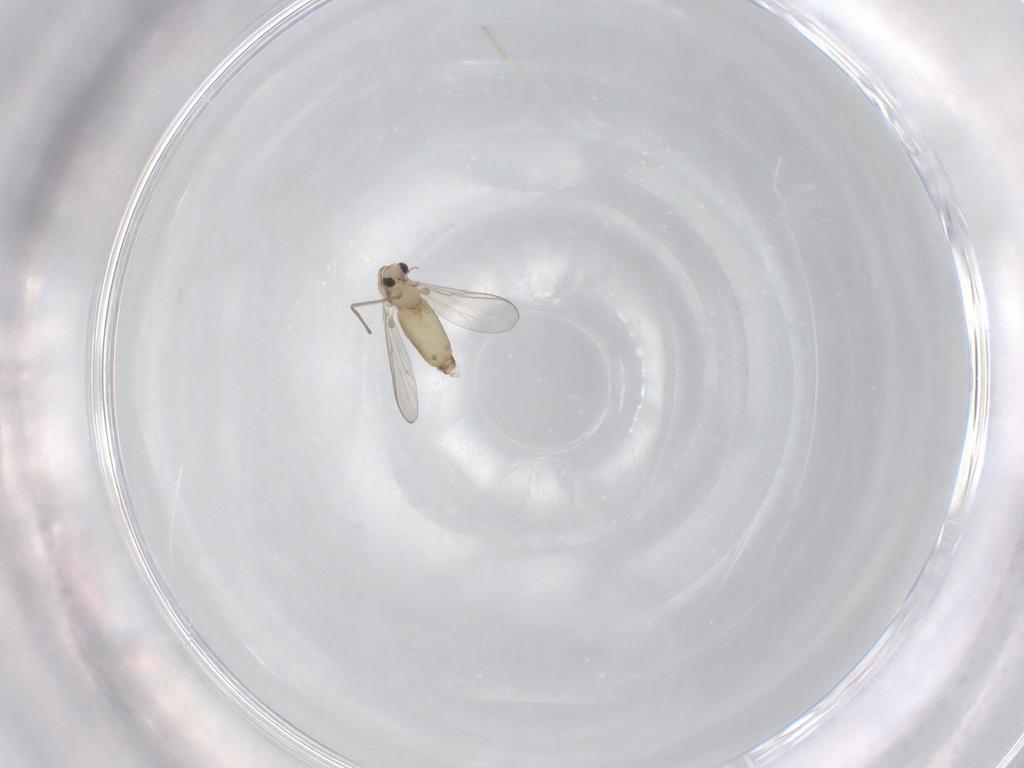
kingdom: Animalia
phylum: Arthropoda
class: Insecta
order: Diptera
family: Chironomidae
